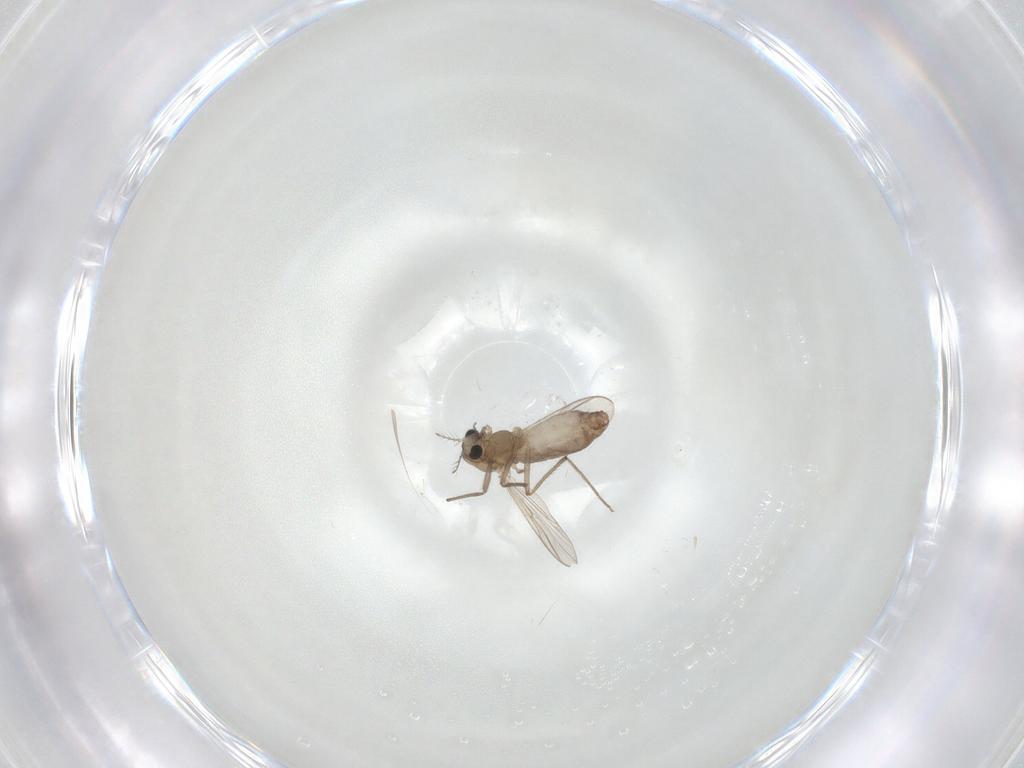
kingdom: Animalia
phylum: Arthropoda
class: Insecta
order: Diptera
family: Chironomidae
